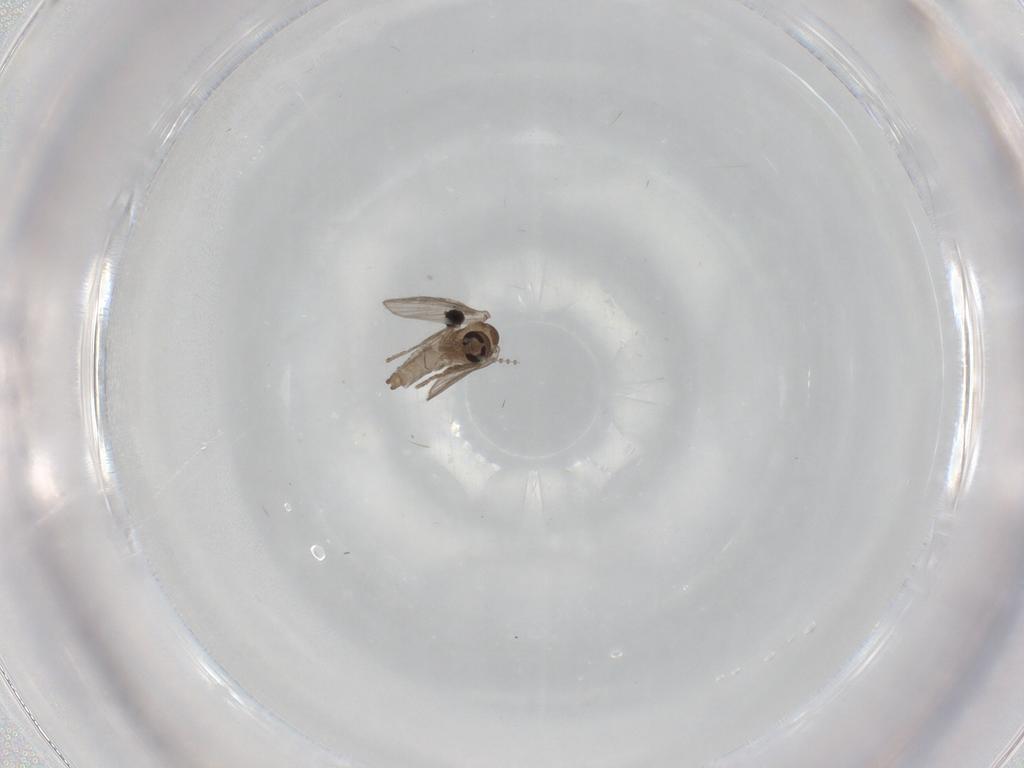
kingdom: Animalia
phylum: Arthropoda
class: Insecta
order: Diptera
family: Psychodidae
